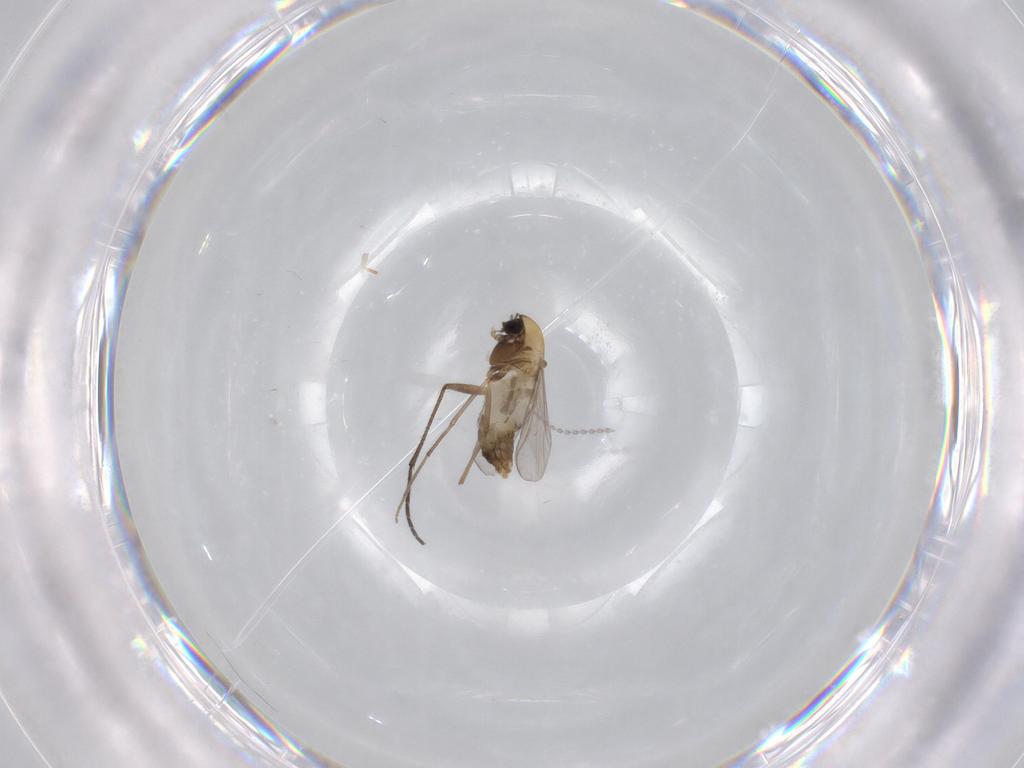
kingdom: Animalia
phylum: Arthropoda
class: Insecta
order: Diptera
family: Chironomidae
